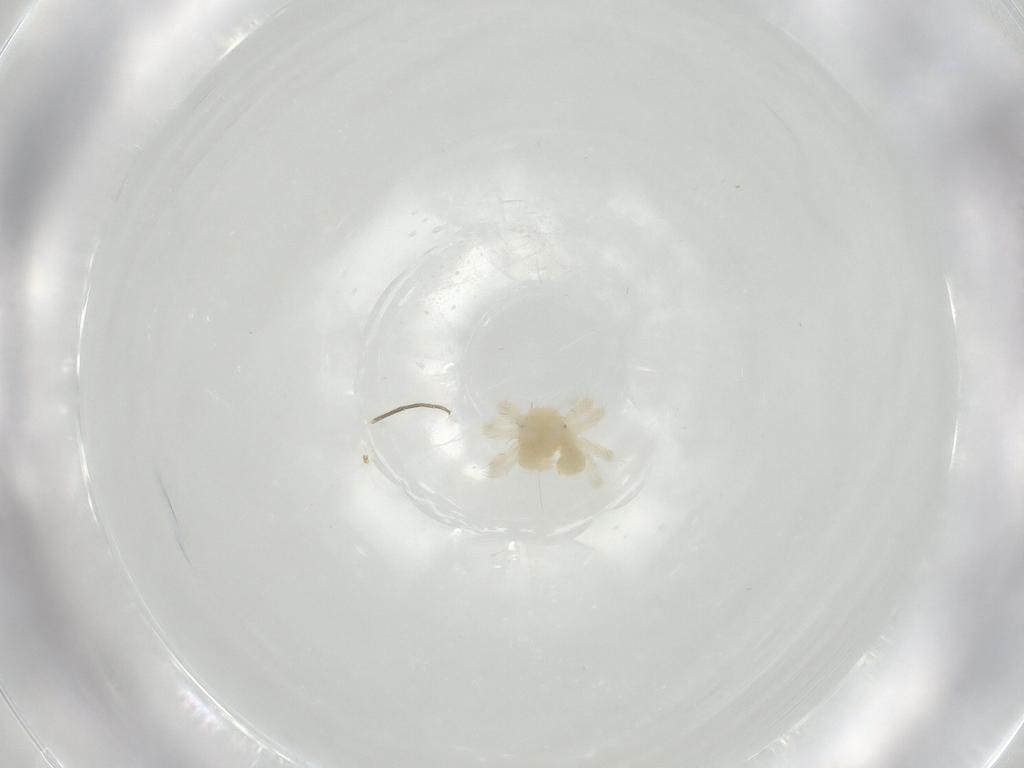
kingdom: Animalia
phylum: Arthropoda
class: Arachnida
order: Trombidiformes
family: Anystidae
